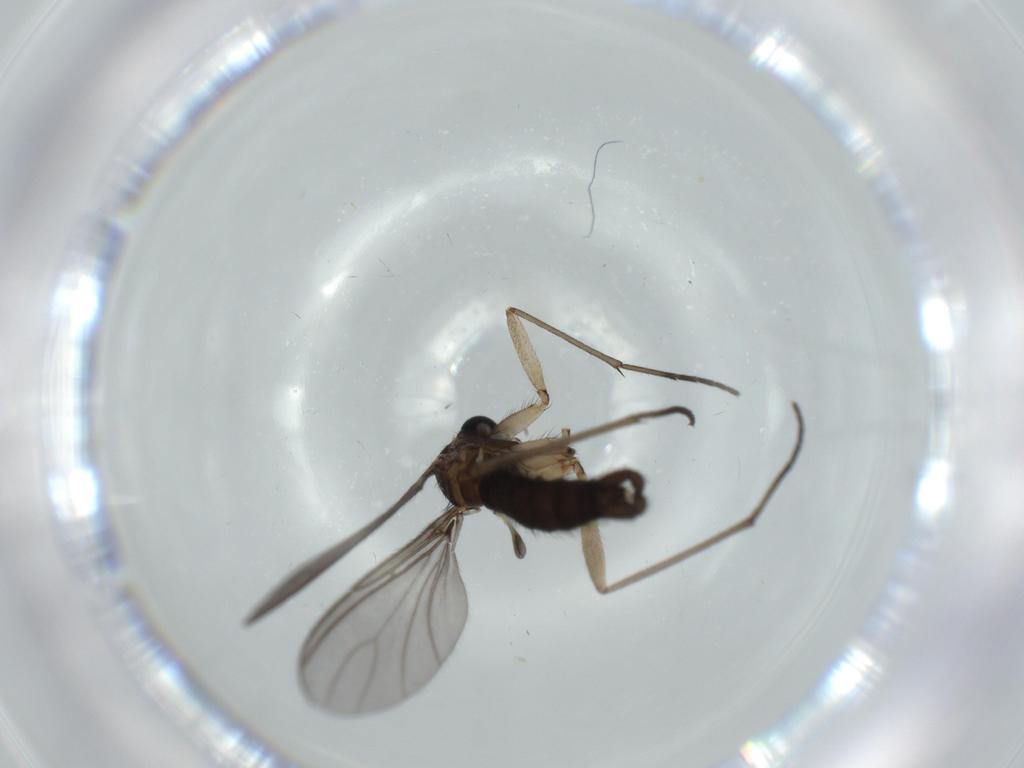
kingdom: Animalia
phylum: Arthropoda
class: Insecta
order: Diptera
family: Sciaridae
